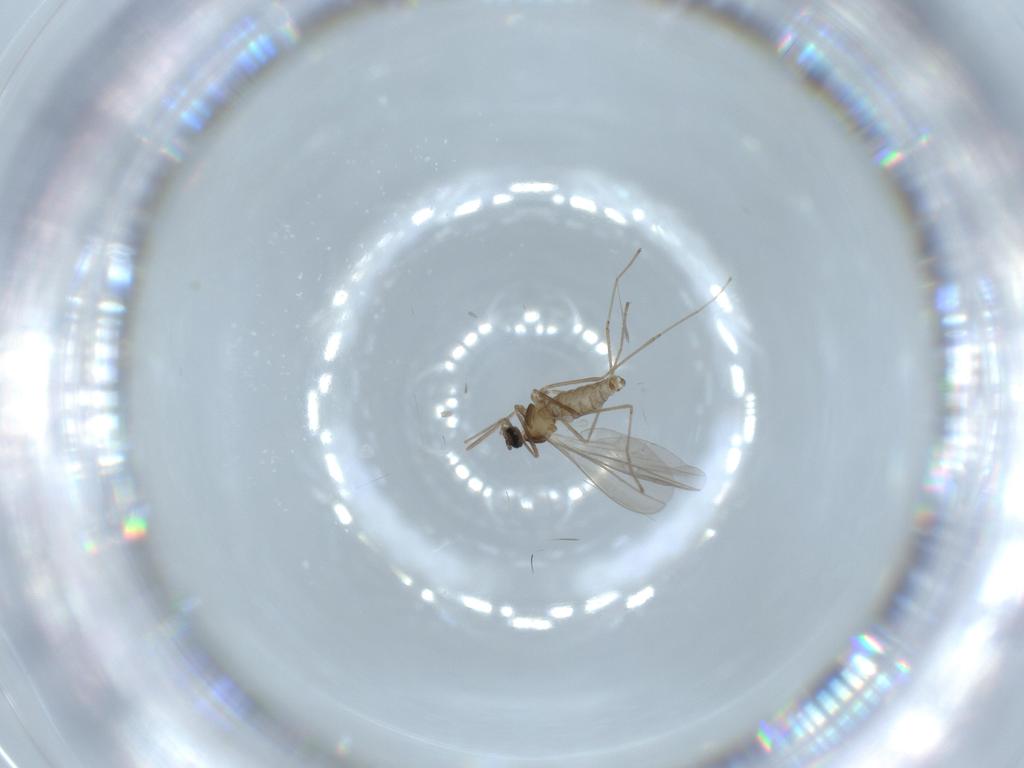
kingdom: Animalia
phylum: Arthropoda
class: Insecta
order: Diptera
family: Cecidomyiidae
